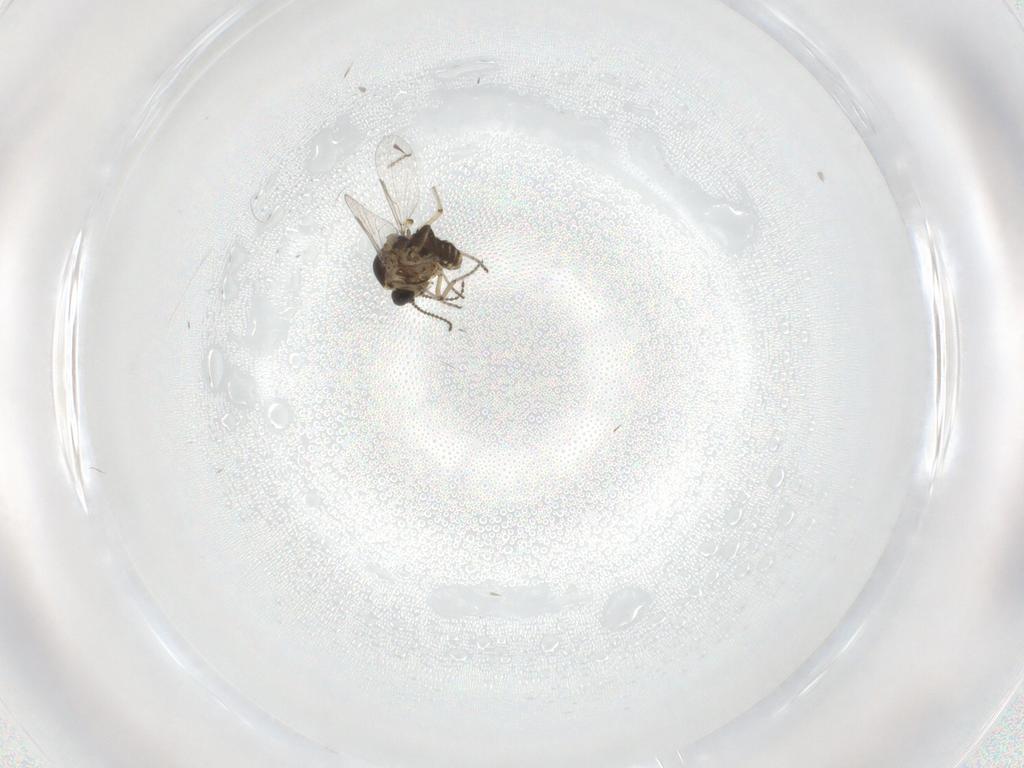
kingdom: Animalia
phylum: Arthropoda
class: Insecta
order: Diptera
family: Ceratopogonidae
